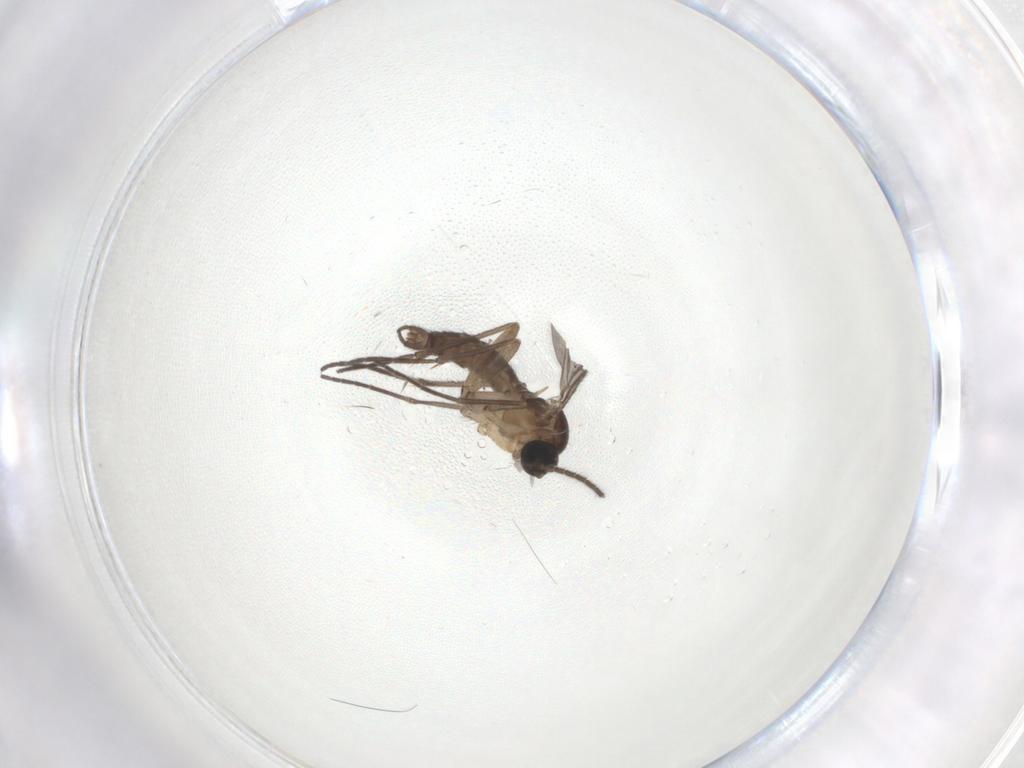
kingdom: Animalia
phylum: Arthropoda
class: Insecta
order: Diptera
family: Sciaridae
